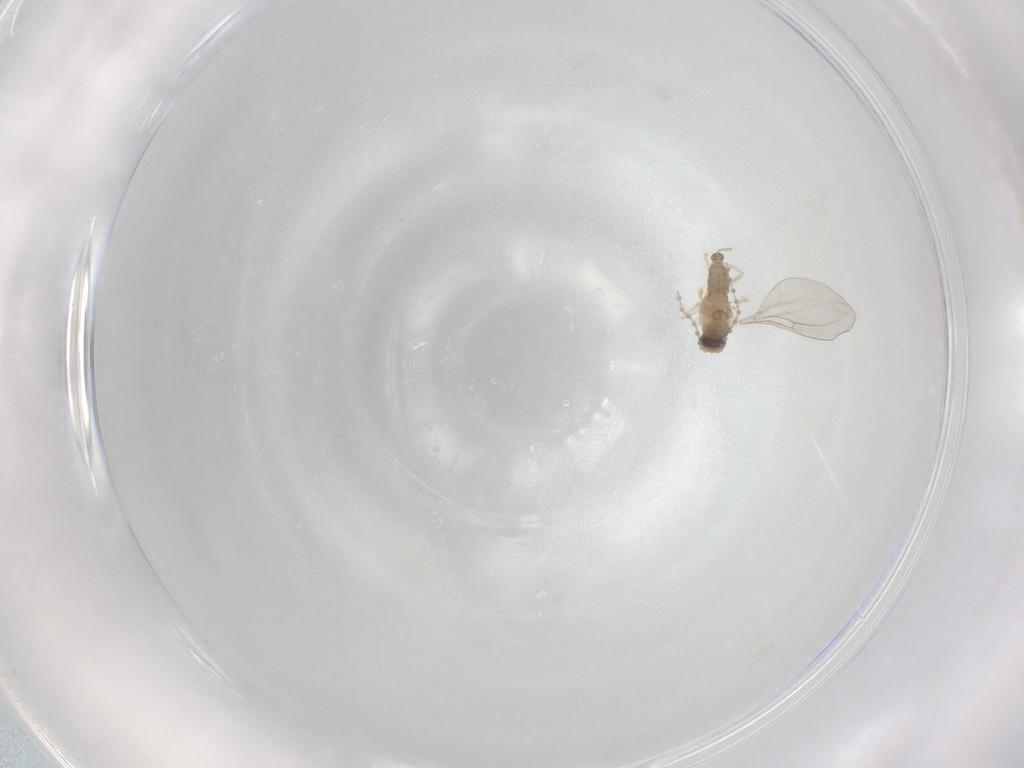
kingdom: Animalia
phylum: Arthropoda
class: Insecta
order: Diptera
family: Cecidomyiidae
